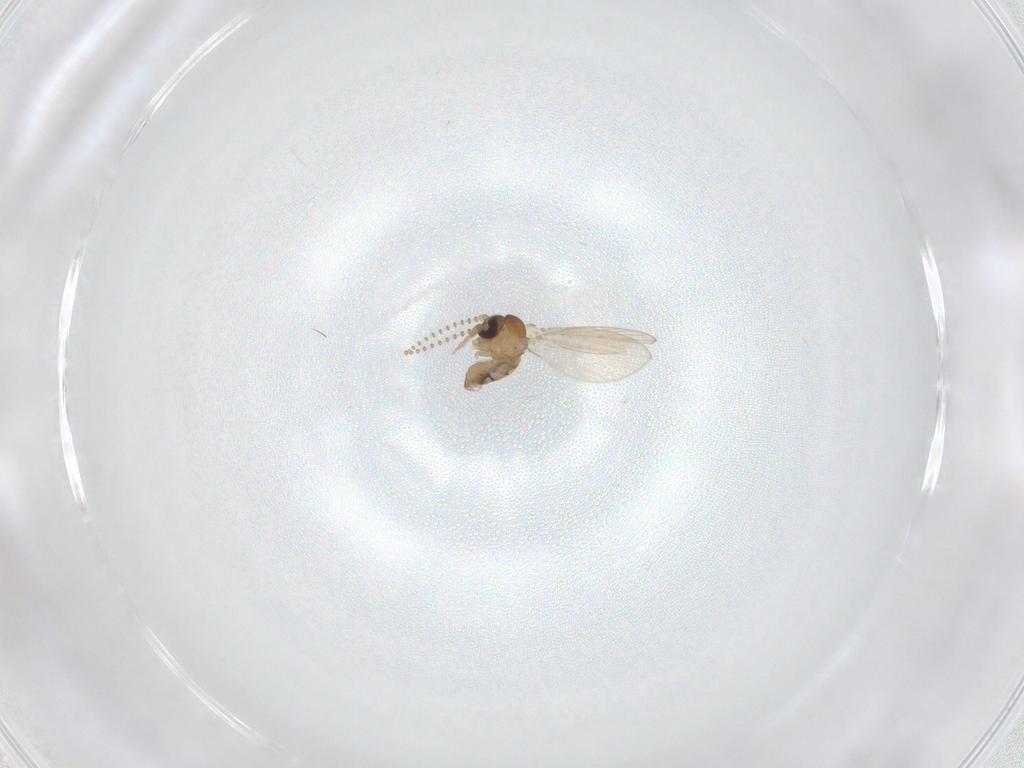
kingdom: Animalia
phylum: Arthropoda
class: Insecta
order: Diptera
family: Psychodidae
